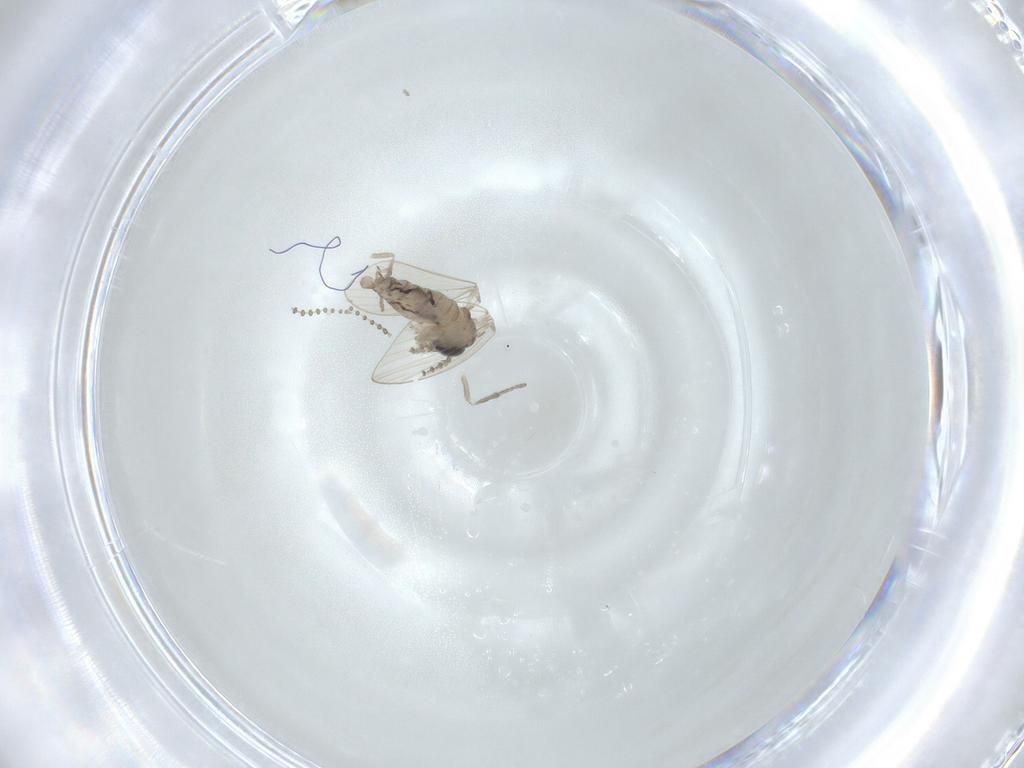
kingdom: Animalia
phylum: Arthropoda
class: Insecta
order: Diptera
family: Psychodidae
